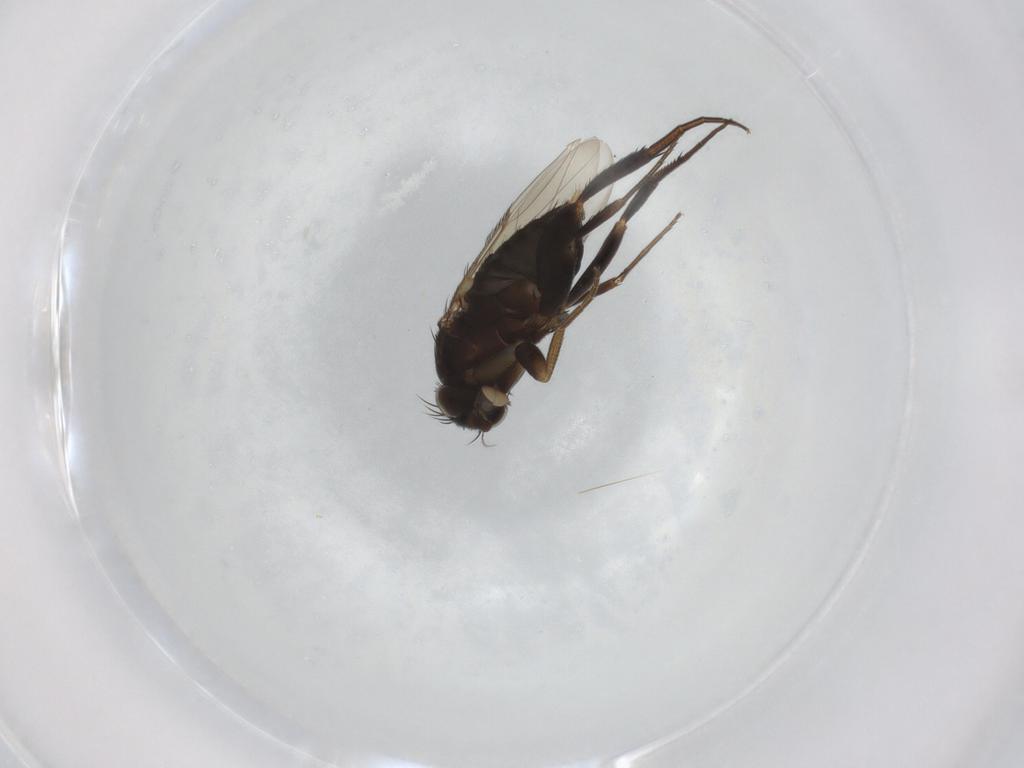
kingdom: Animalia
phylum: Arthropoda
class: Insecta
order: Diptera
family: Phoridae
